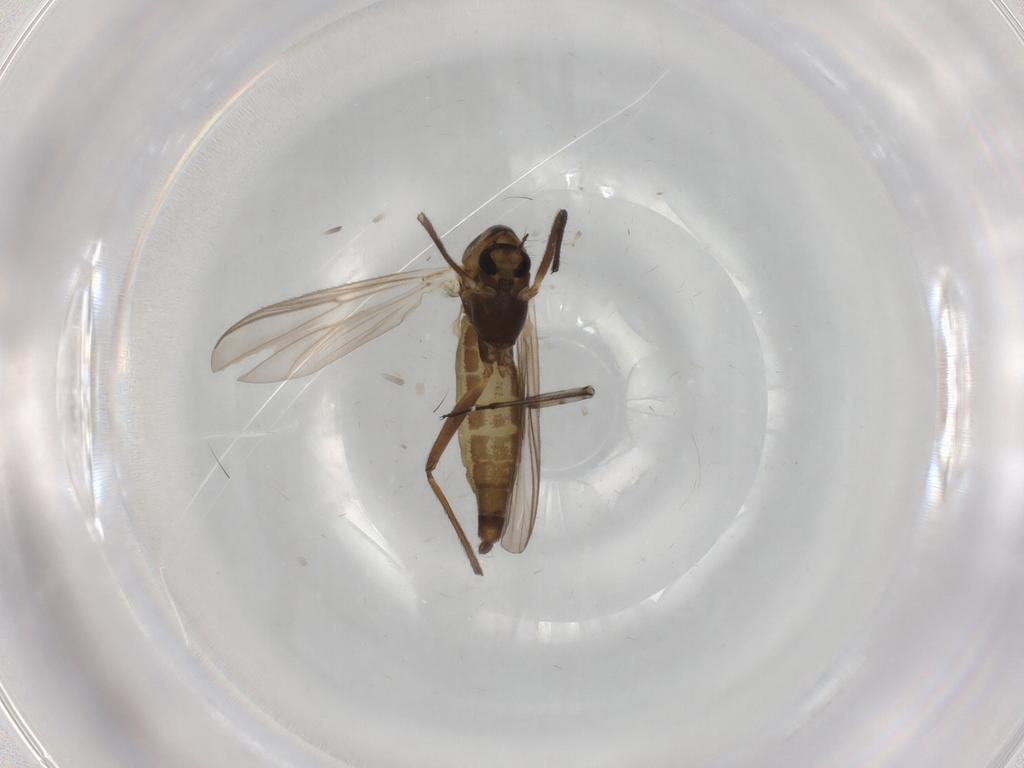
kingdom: Animalia
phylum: Arthropoda
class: Insecta
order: Diptera
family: Chironomidae
